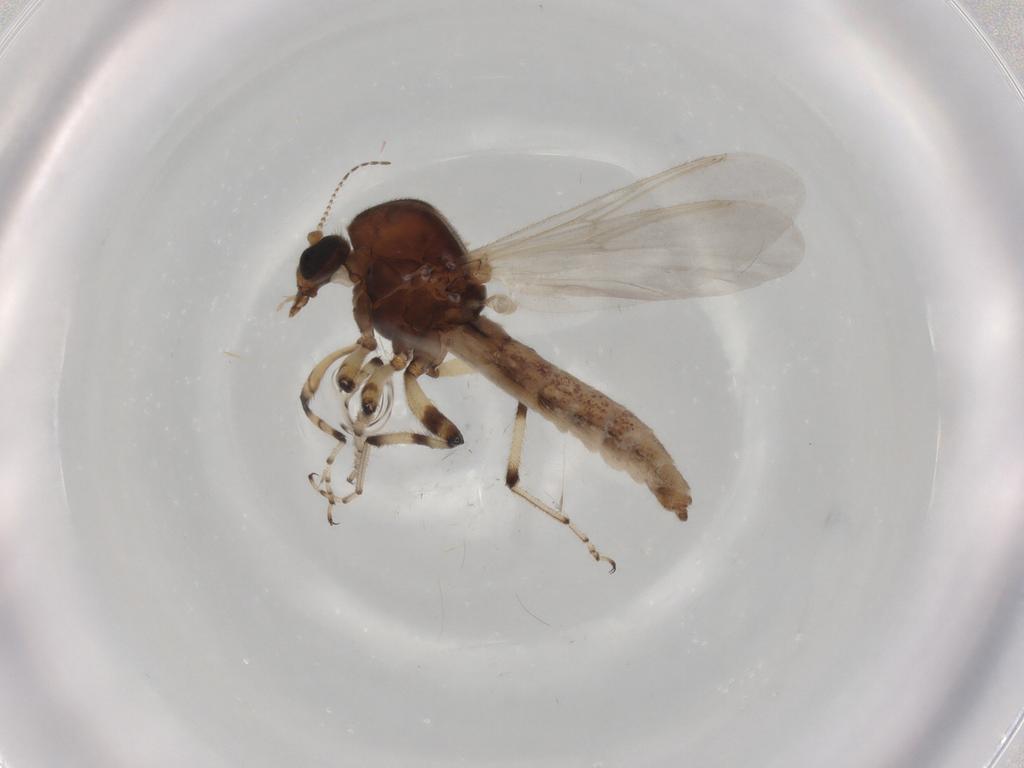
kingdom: Animalia
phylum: Arthropoda
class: Insecta
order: Diptera
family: Ceratopogonidae
